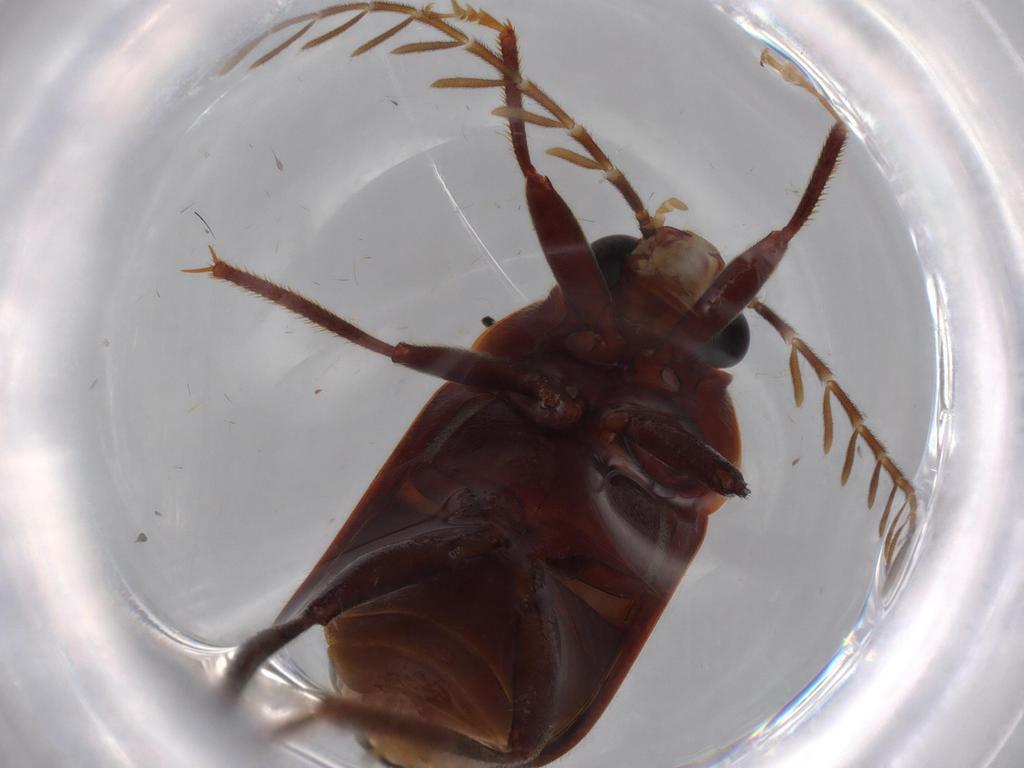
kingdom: Animalia
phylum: Arthropoda
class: Insecta
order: Coleoptera
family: Ptilodactylidae
